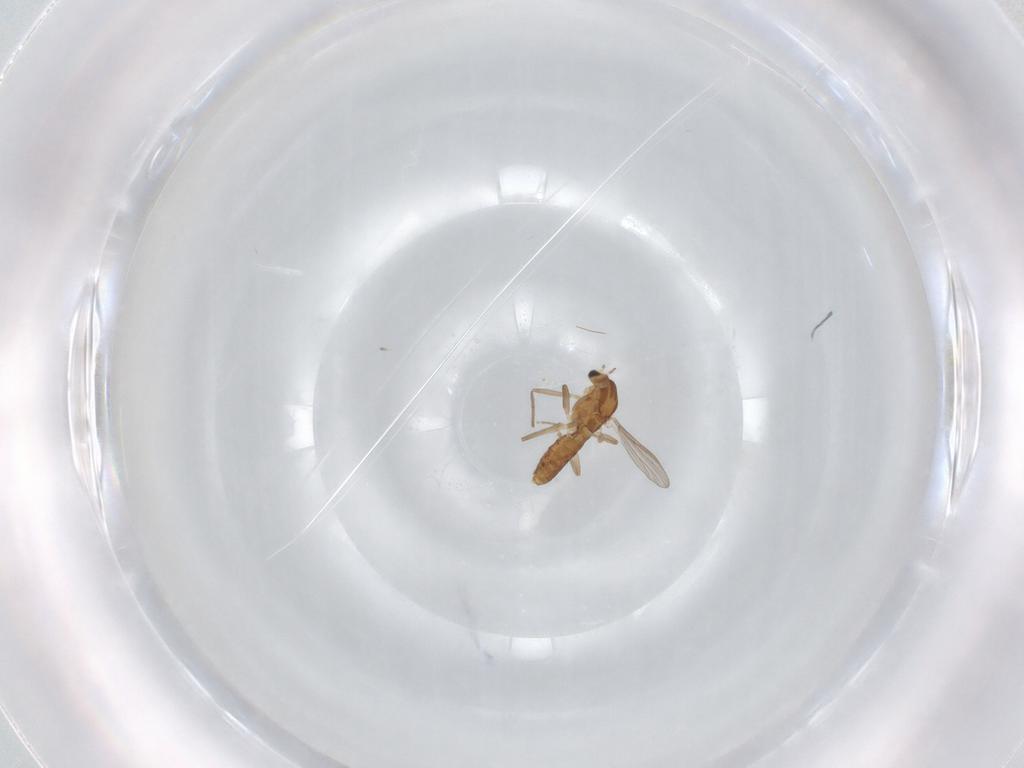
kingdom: Animalia
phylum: Arthropoda
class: Insecta
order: Diptera
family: Chironomidae
